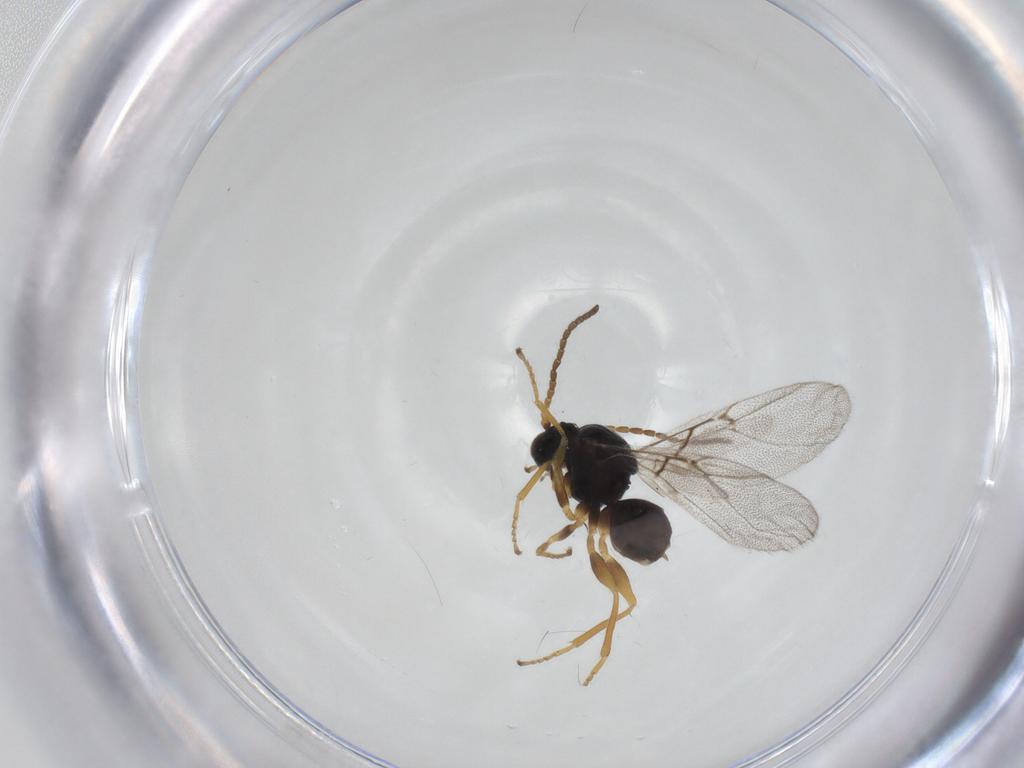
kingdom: Animalia
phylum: Arthropoda
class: Insecta
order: Hymenoptera
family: Cynipidae
